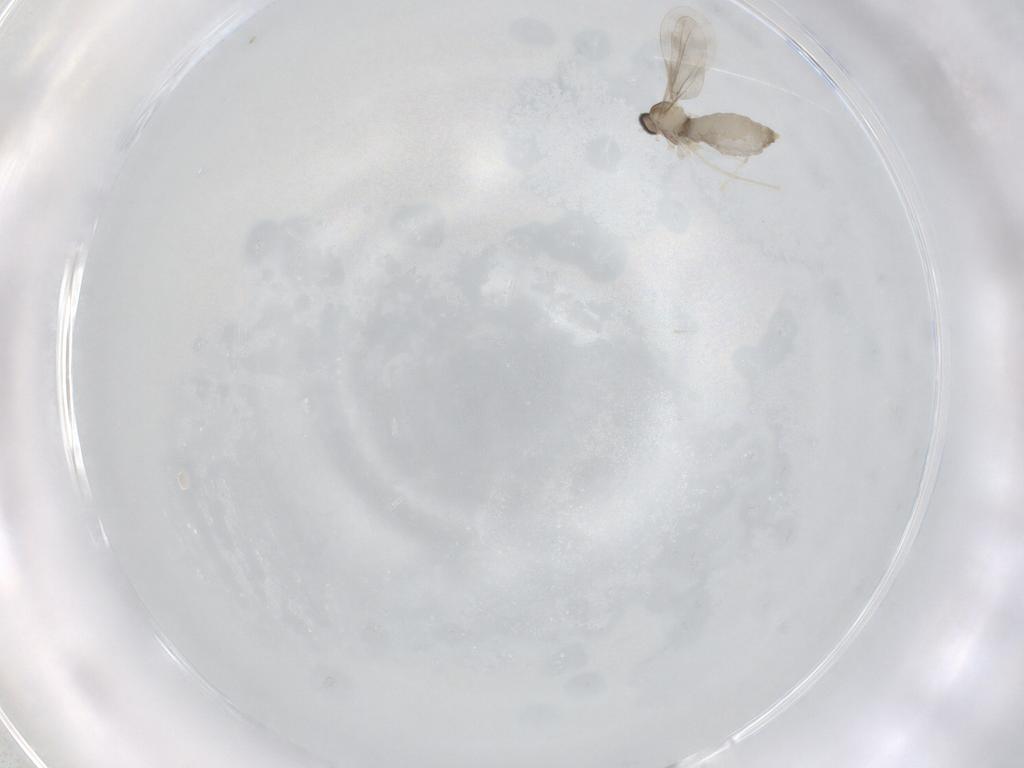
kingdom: Animalia
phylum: Arthropoda
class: Insecta
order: Diptera
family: Cecidomyiidae
